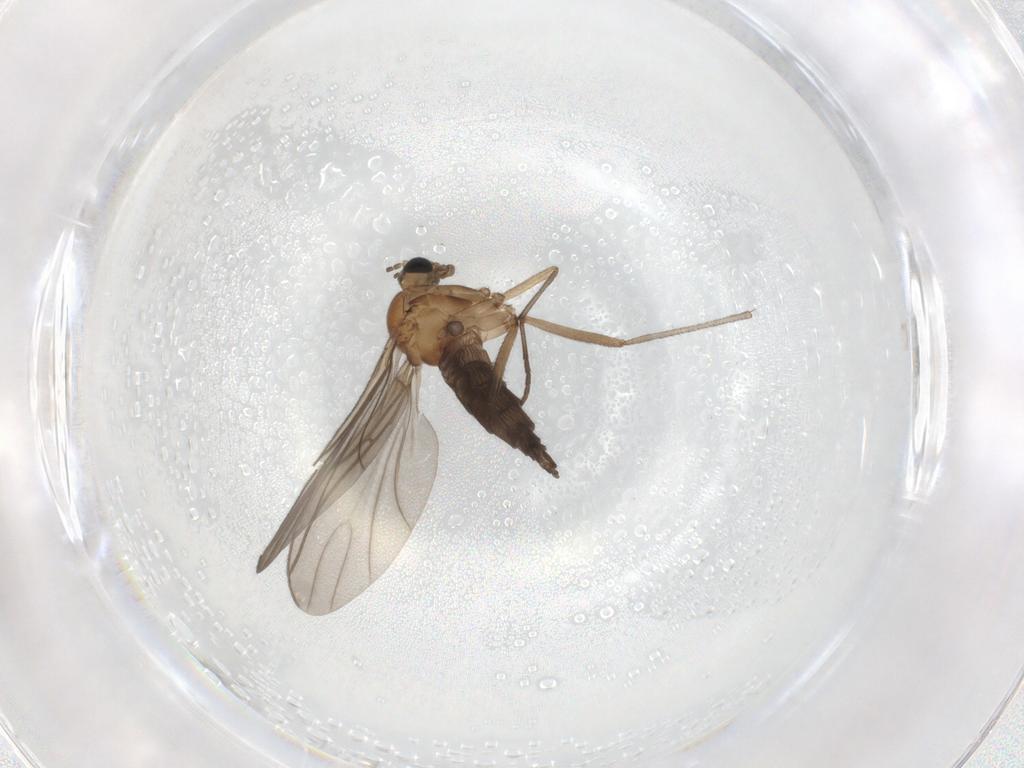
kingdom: Animalia
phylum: Arthropoda
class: Insecta
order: Diptera
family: Sciaridae
